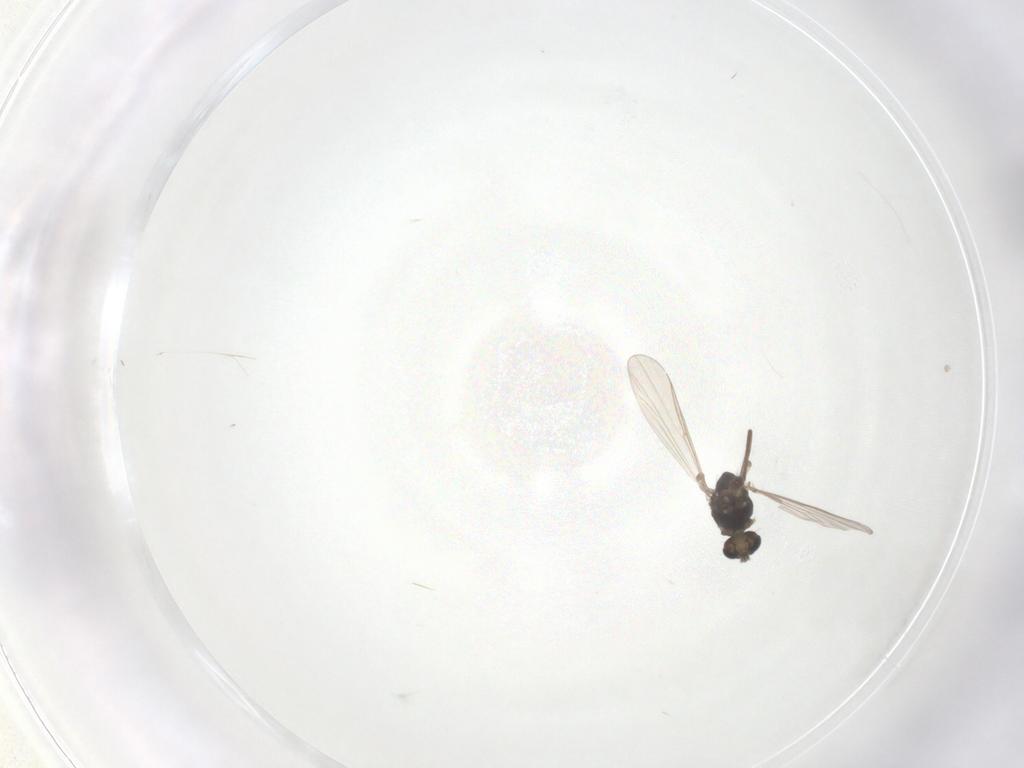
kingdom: Animalia
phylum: Arthropoda
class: Insecta
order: Diptera
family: Chironomidae
